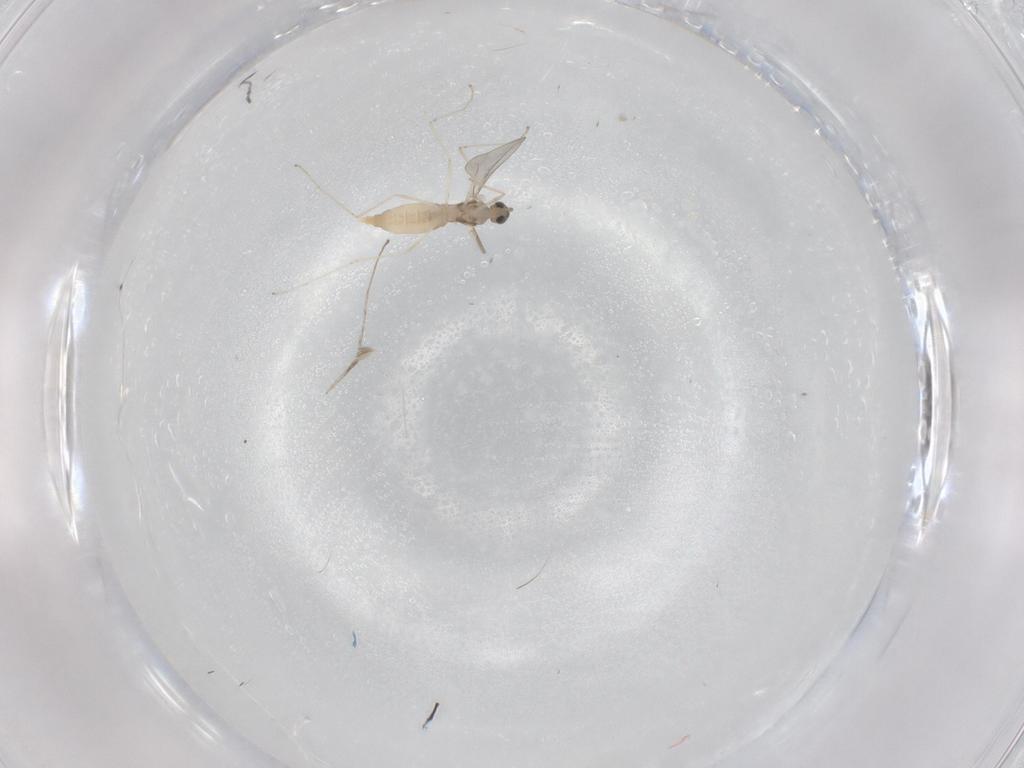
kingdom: Animalia
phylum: Arthropoda
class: Insecta
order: Diptera
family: Cecidomyiidae
